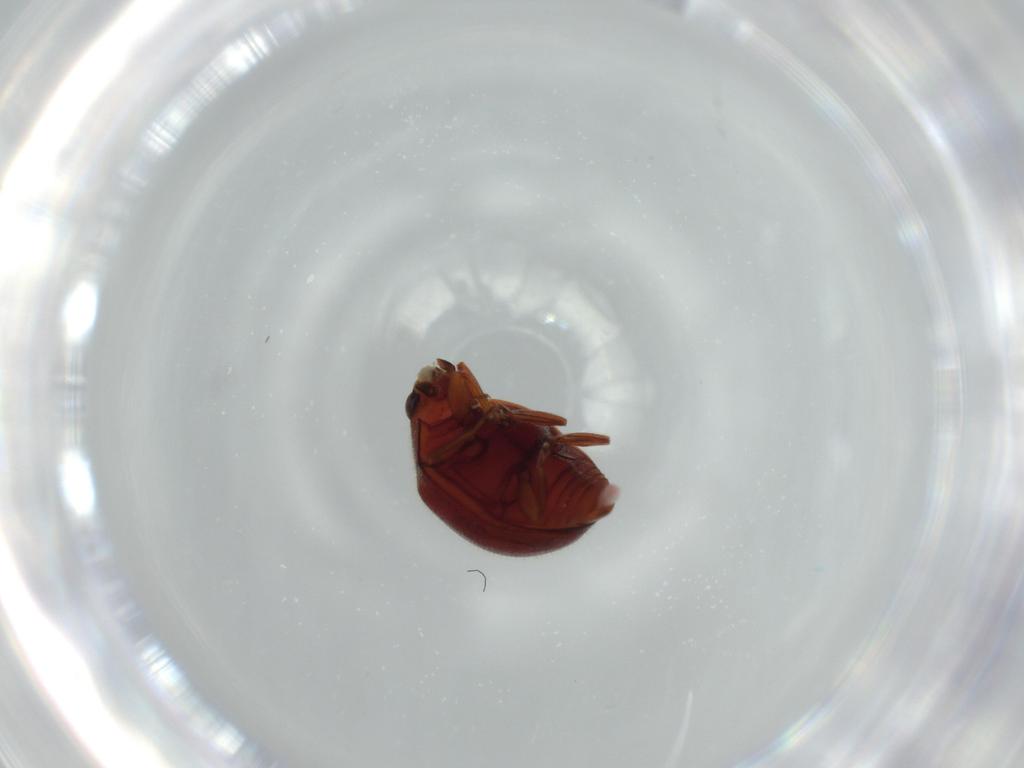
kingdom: Animalia
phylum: Arthropoda
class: Insecta
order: Coleoptera
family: Coccinellidae
